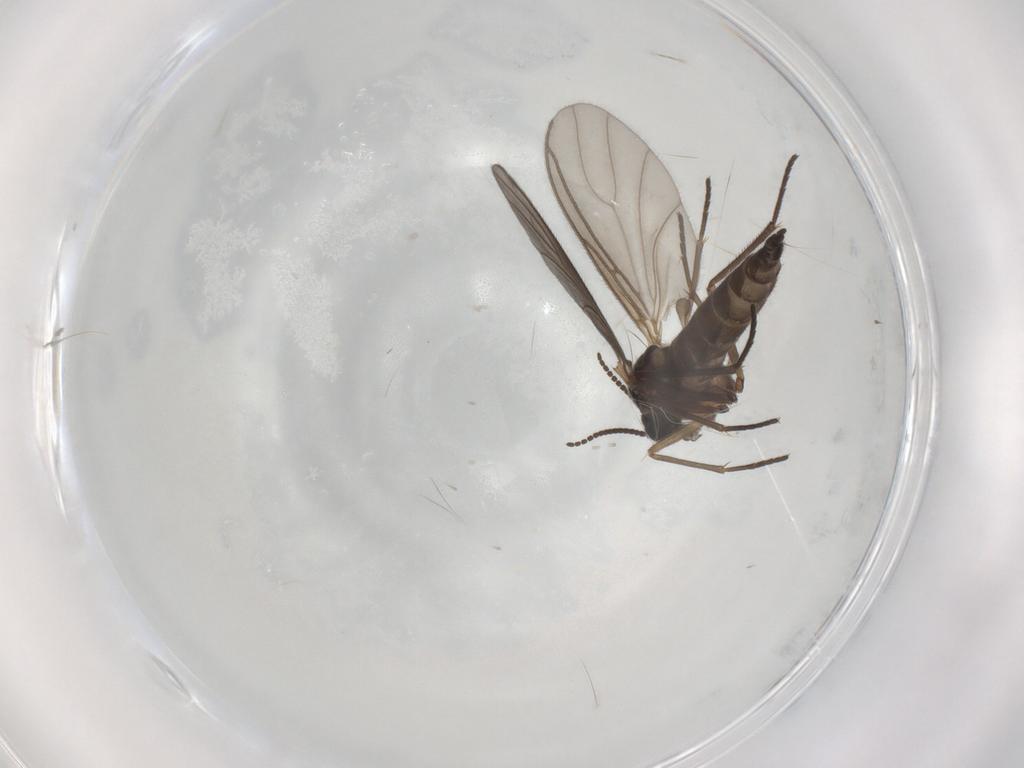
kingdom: Animalia
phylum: Arthropoda
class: Insecta
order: Diptera
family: Sciaridae
